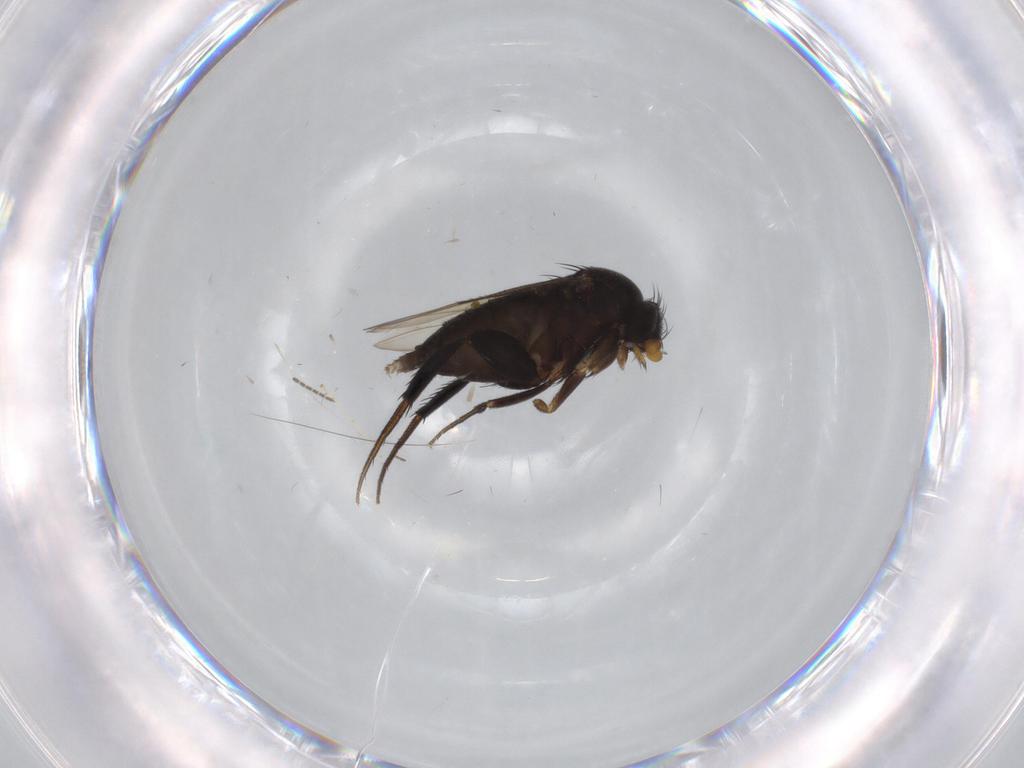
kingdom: Animalia
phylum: Arthropoda
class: Insecta
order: Diptera
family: Phoridae
